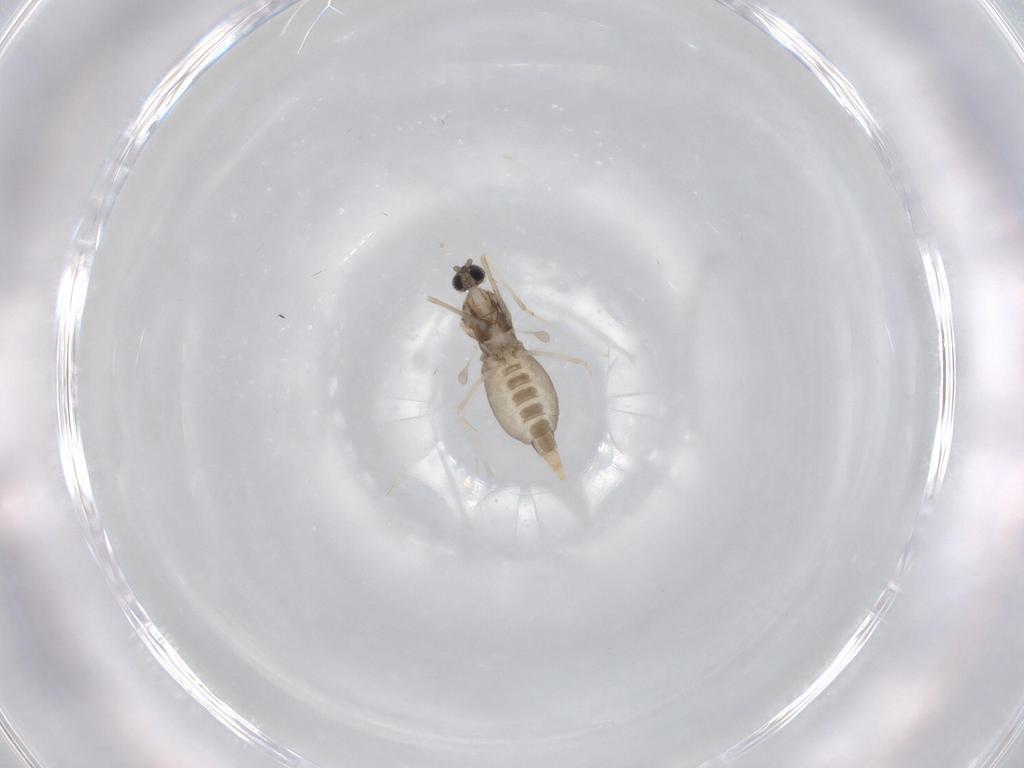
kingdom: Animalia
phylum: Arthropoda
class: Insecta
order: Diptera
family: Cecidomyiidae
